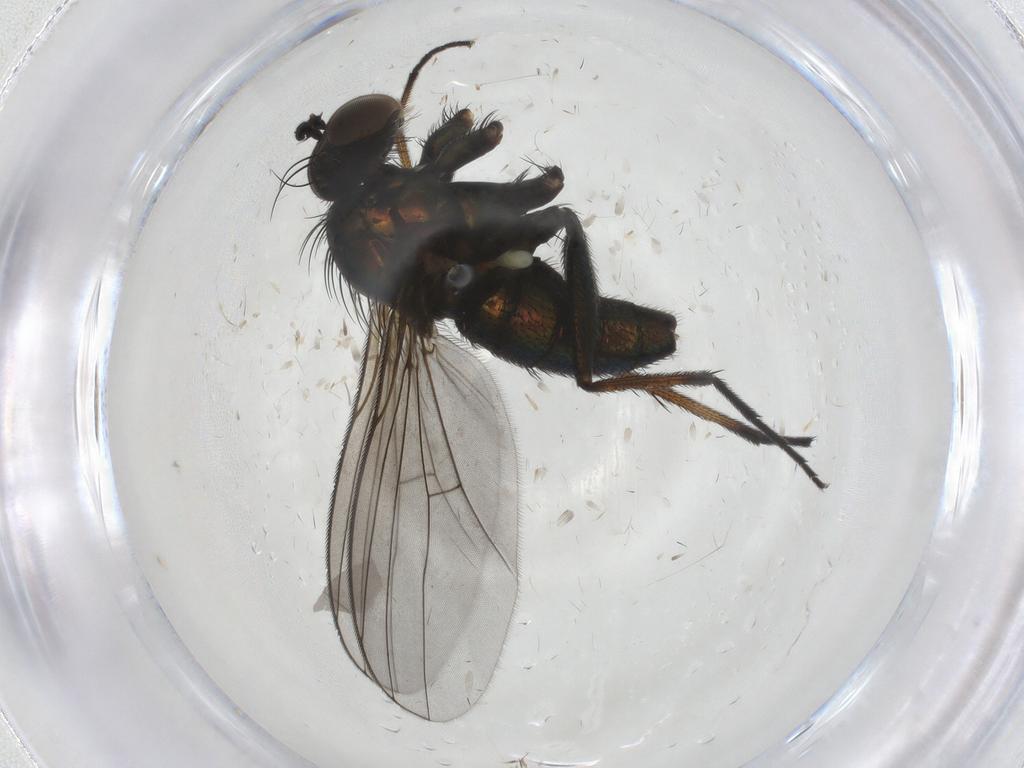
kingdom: Animalia
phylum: Arthropoda
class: Insecta
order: Diptera
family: Dolichopodidae
